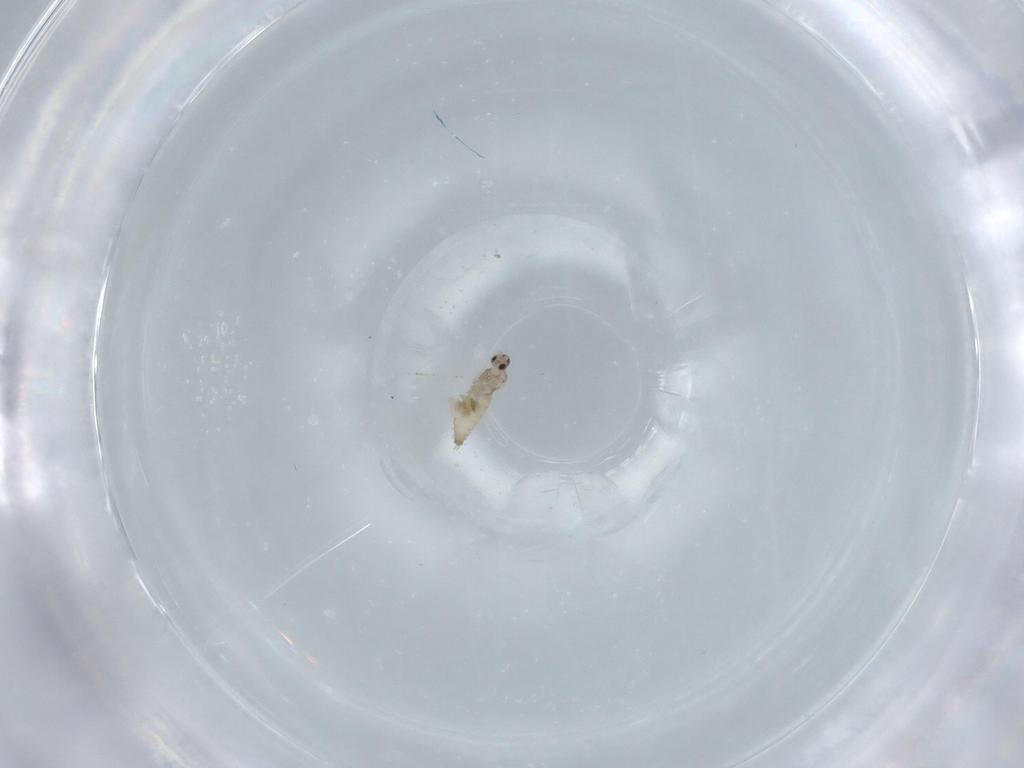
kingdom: Animalia
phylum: Arthropoda
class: Insecta
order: Diptera
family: Cecidomyiidae
